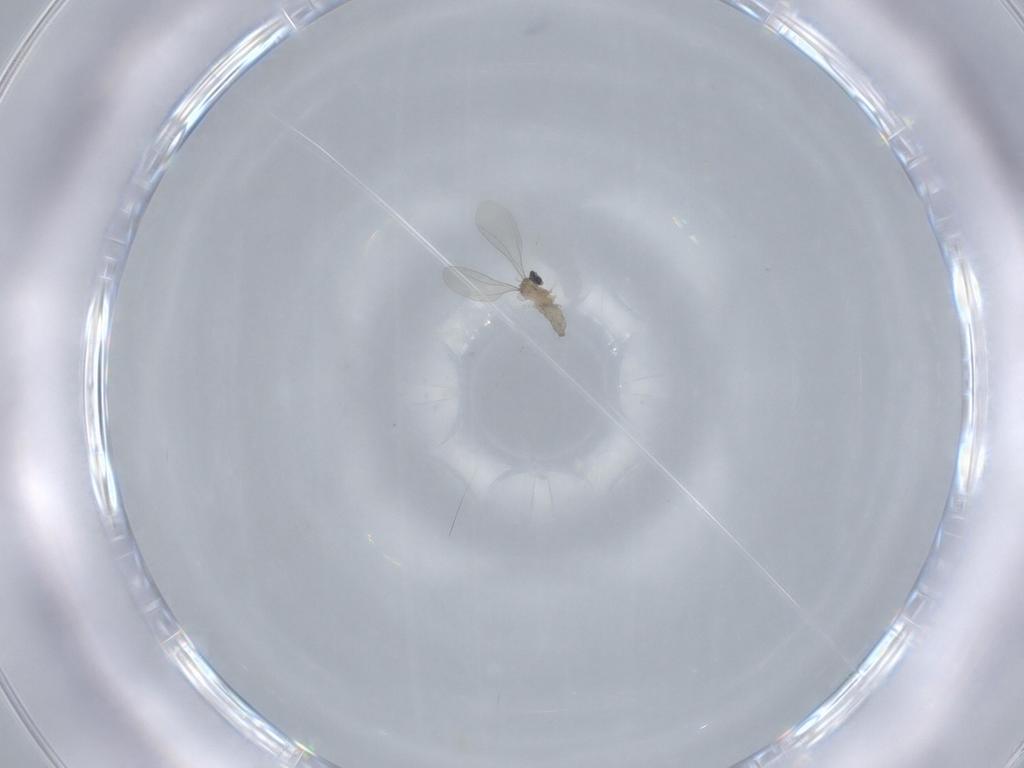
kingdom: Animalia
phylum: Arthropoda
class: Insecta
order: Diptera
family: Cecidomyiidae
